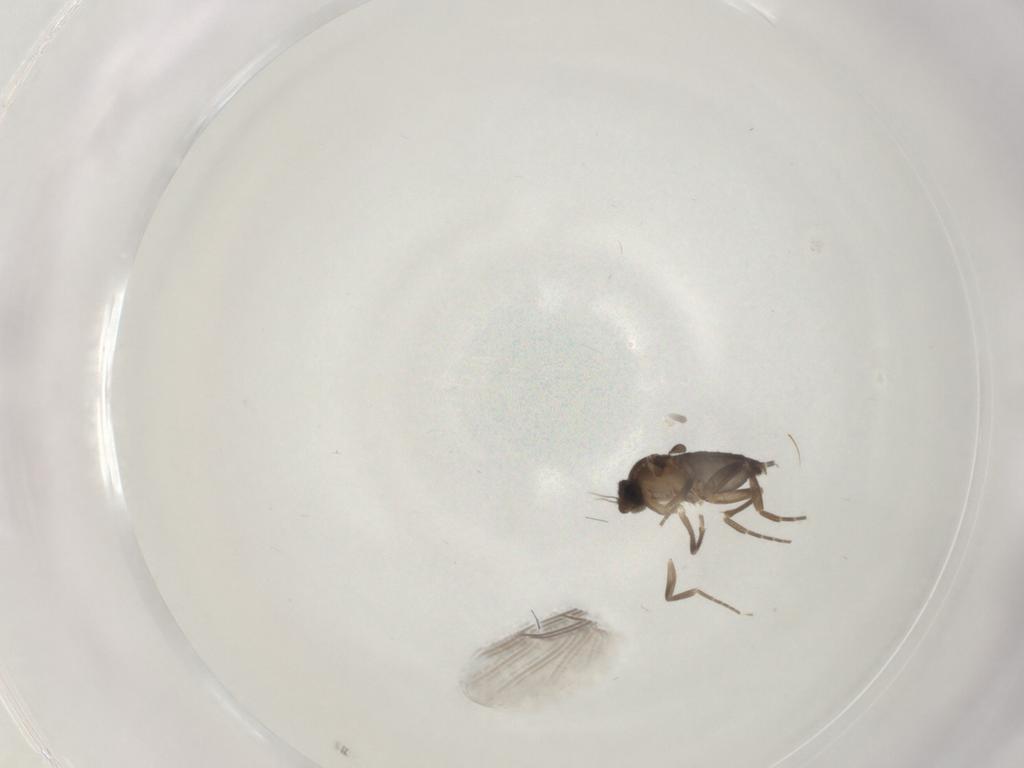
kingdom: Animalia
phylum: Arthropoda
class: Insecta
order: Diptera
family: Phoridae
